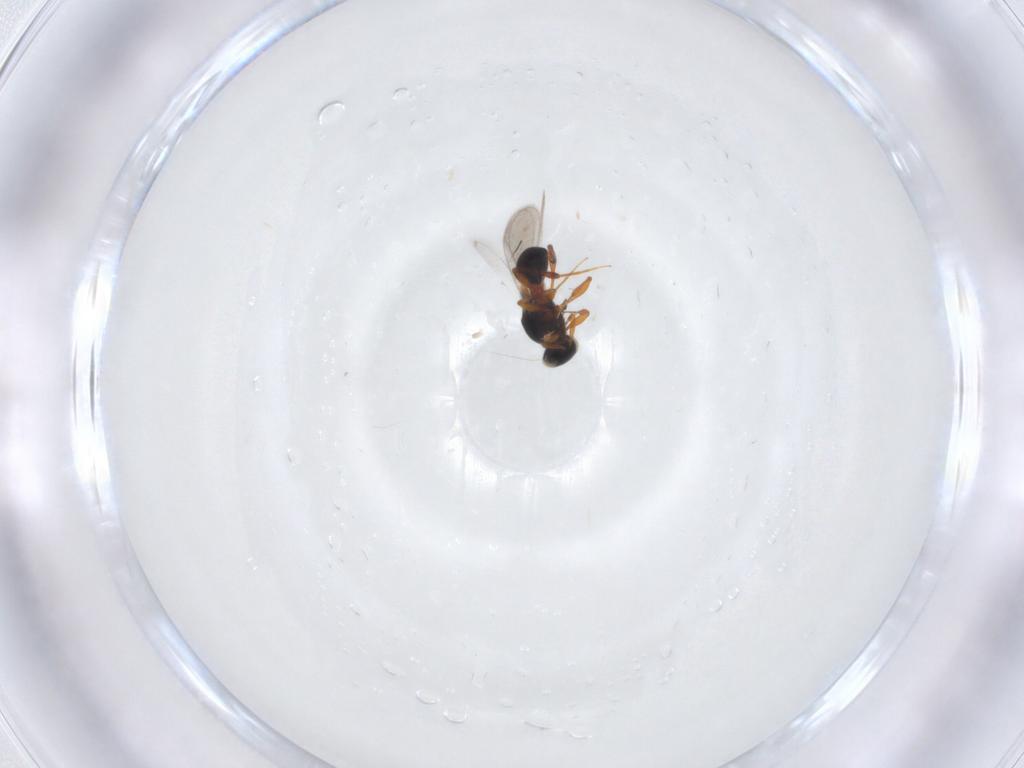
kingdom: Animalia
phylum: Arthropoda
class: Insecta
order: Hymenoptera
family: Platygastridae
